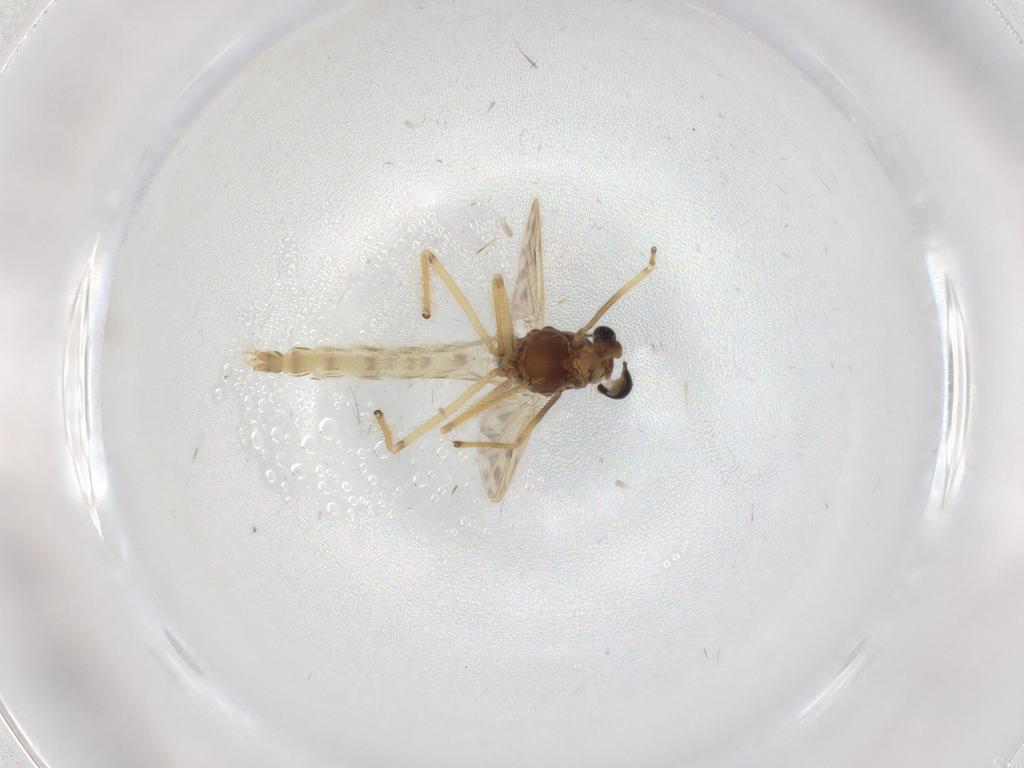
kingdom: Animalia
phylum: Arthropoda
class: Insecta
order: Diptera
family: Chironomidae
